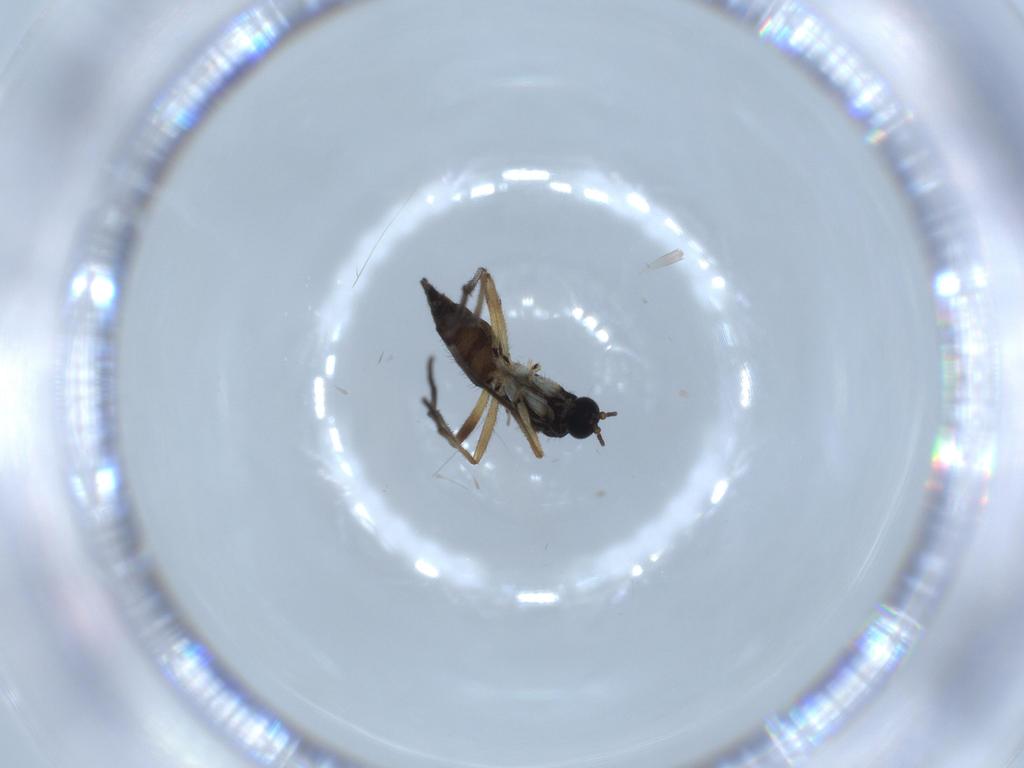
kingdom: Animalia
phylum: Arthropoda
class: Insecta
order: Diptera
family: Sciaridae
